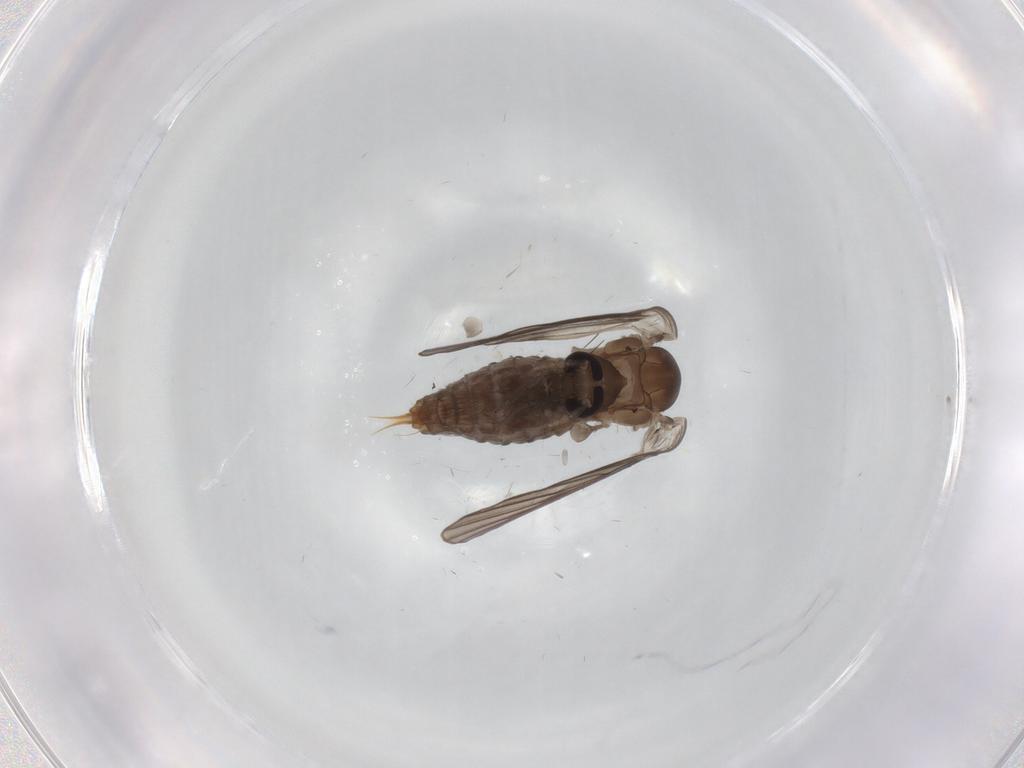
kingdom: Animalia
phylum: Arthropoda
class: Insecta
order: Diptera
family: Psychodidae
